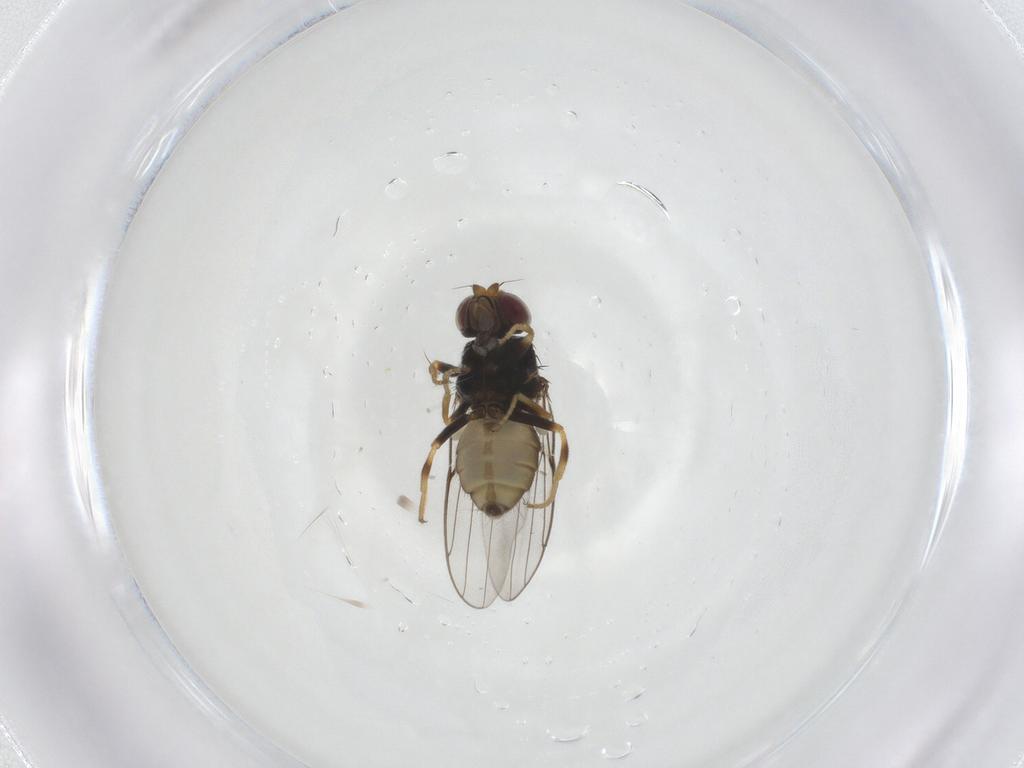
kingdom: Animalia
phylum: Arthropoda
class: Insecta
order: Diptera
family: Chloropidae
